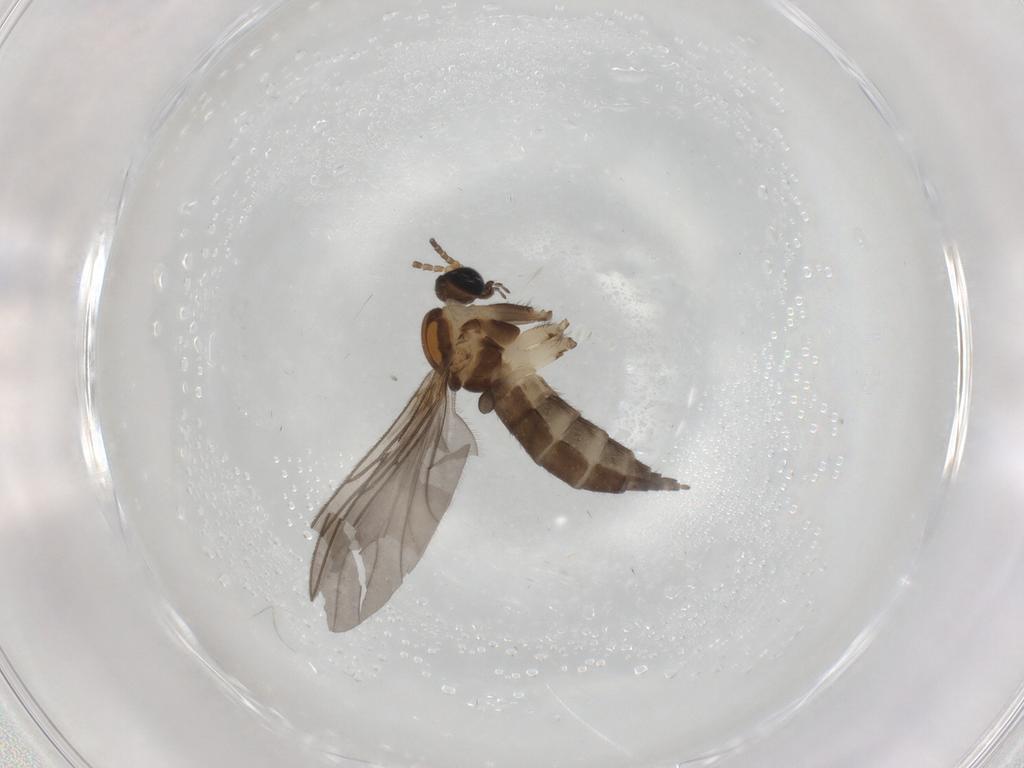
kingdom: Animalia
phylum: Arthropoda
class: Insecta
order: Diptera
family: Sciaridae
